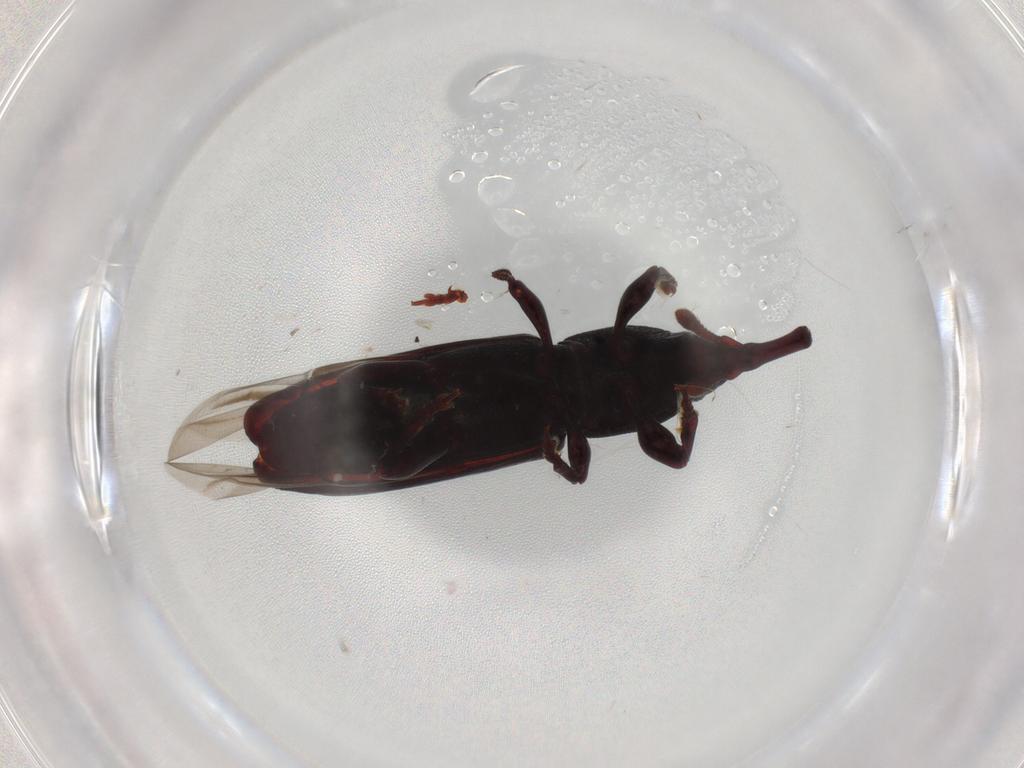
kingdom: Animalia
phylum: Arthropoda
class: Insecta
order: Coleoptera
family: Curculionidae
